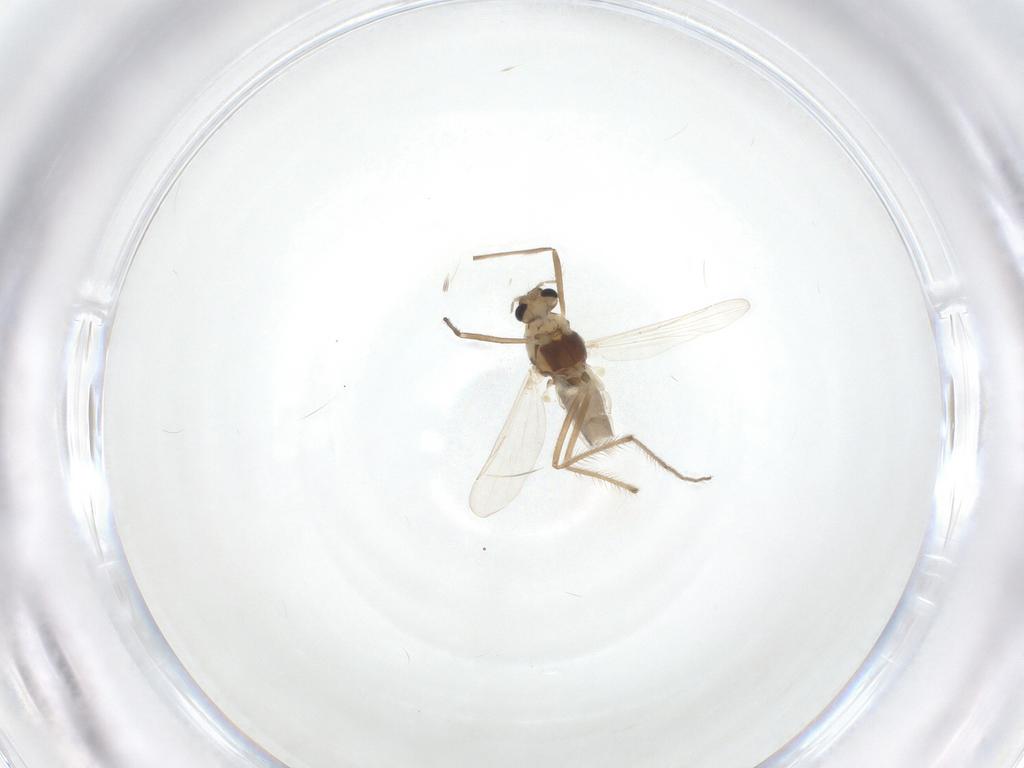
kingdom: Animalia
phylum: Arthropoda
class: Insecta
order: Diptera
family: Chironomidae
